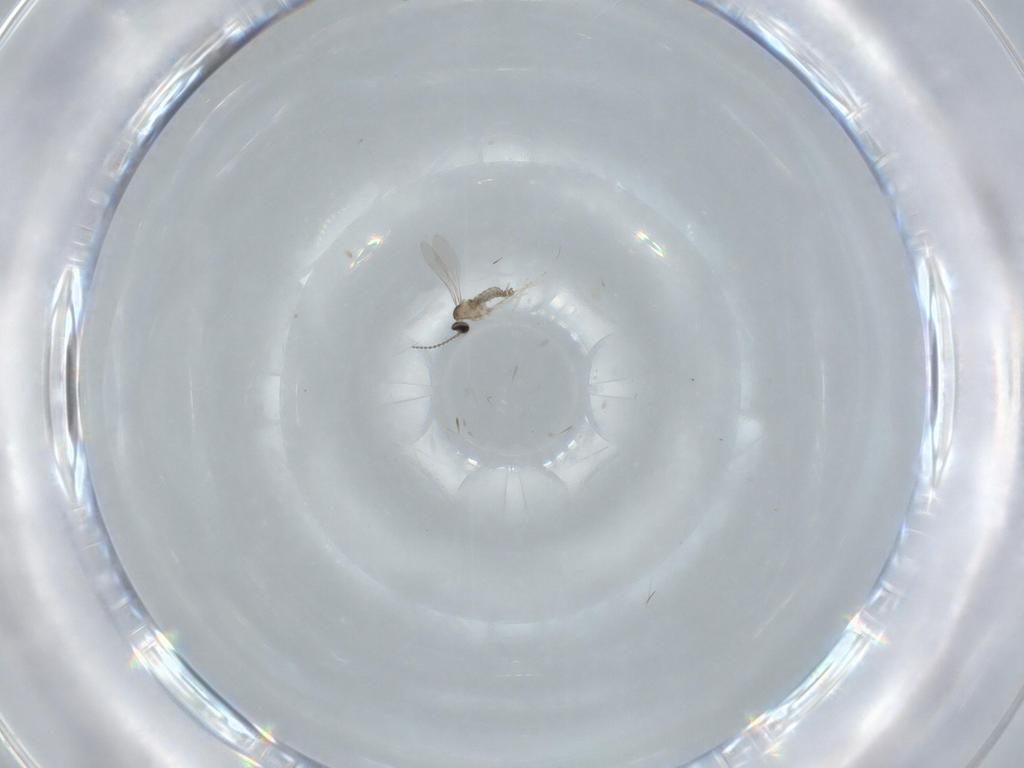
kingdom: Animalia
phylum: Arthropoda
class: Insecta
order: Diptera
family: Cecidomyiidae
